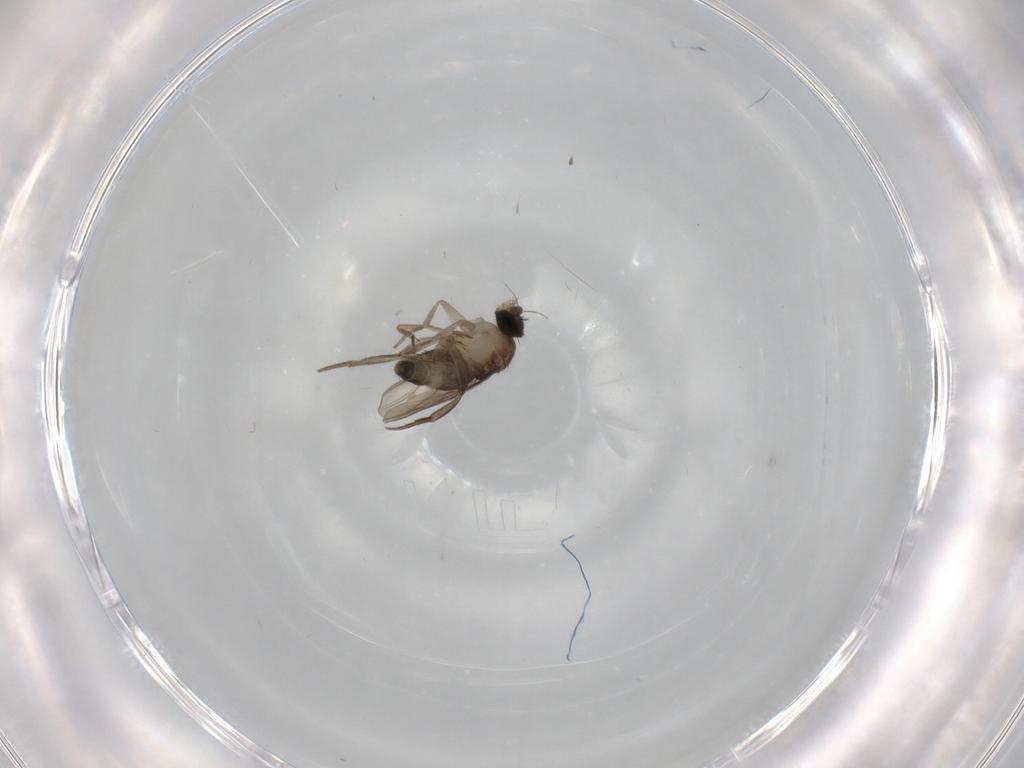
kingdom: Animalia
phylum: Arthropoda
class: Insecta
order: Diptera
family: Phoridae
